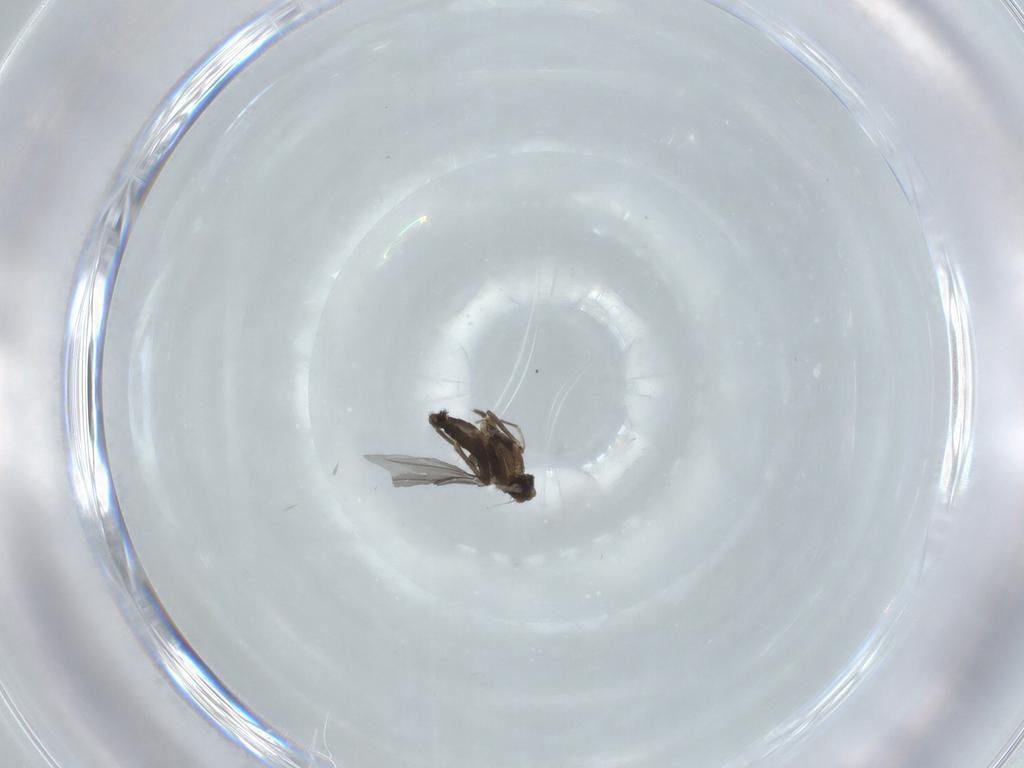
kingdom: Animalia
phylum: Arthropoda
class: Insecta
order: Diptera
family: Phoridae
